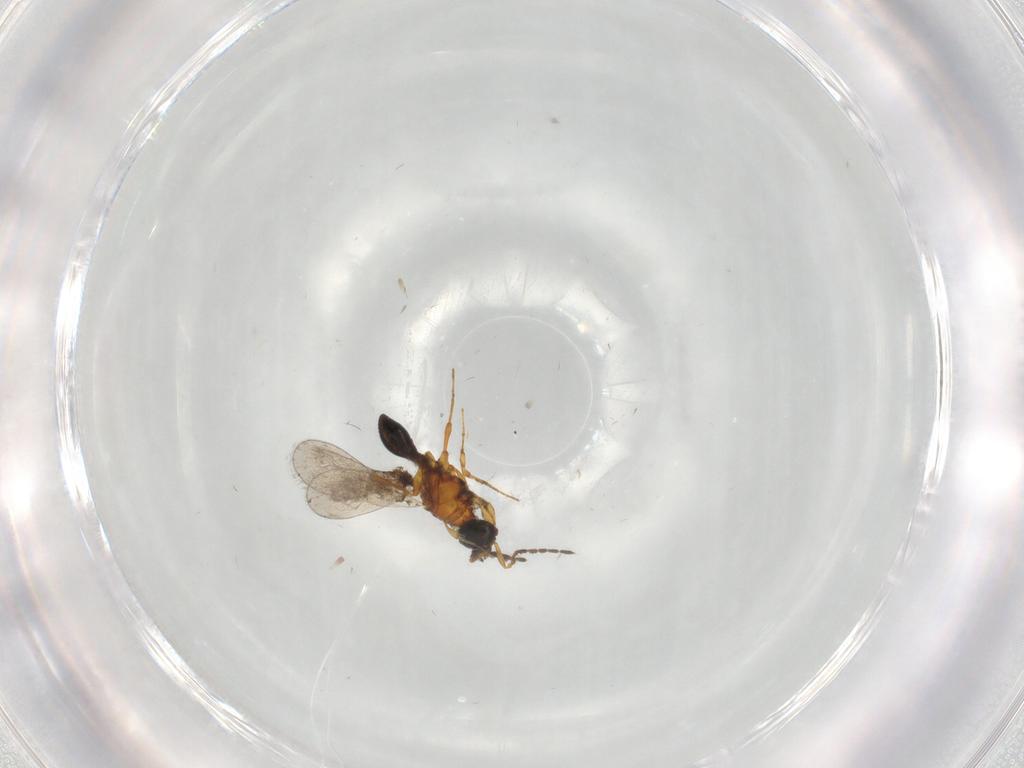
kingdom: Animalia
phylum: Arthropoda
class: Insecta
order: Hymenoptera
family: Platygastridae
